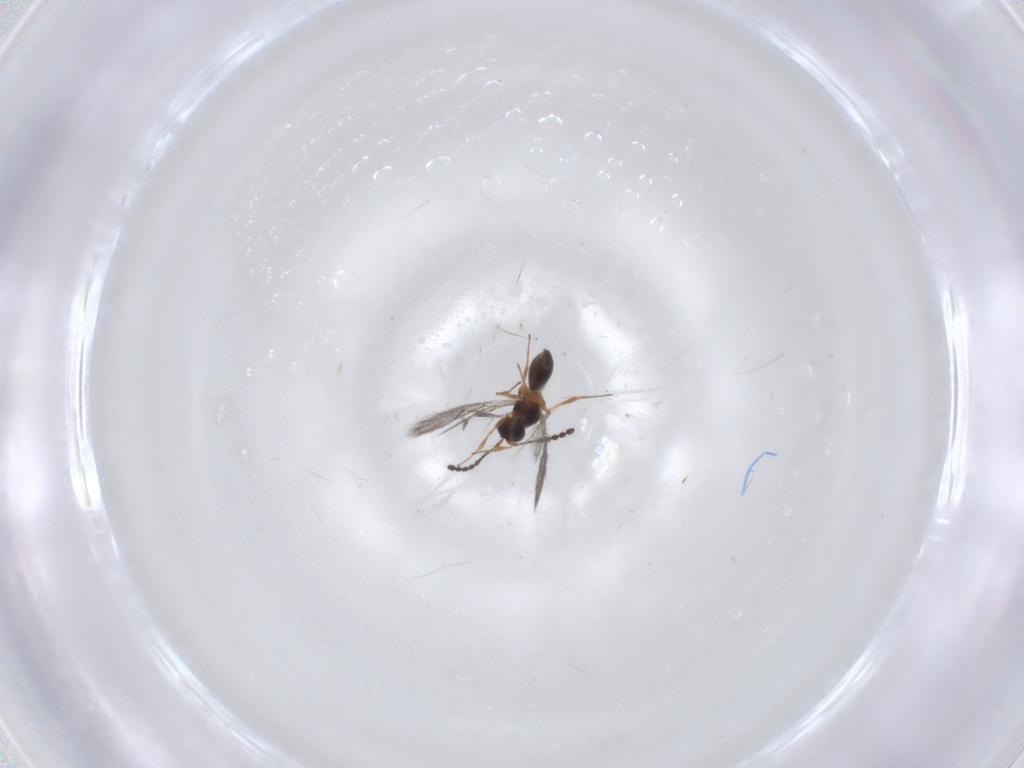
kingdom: Animalia
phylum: Arthropoda
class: Insecta
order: Hymenoptera
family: Figitidae
